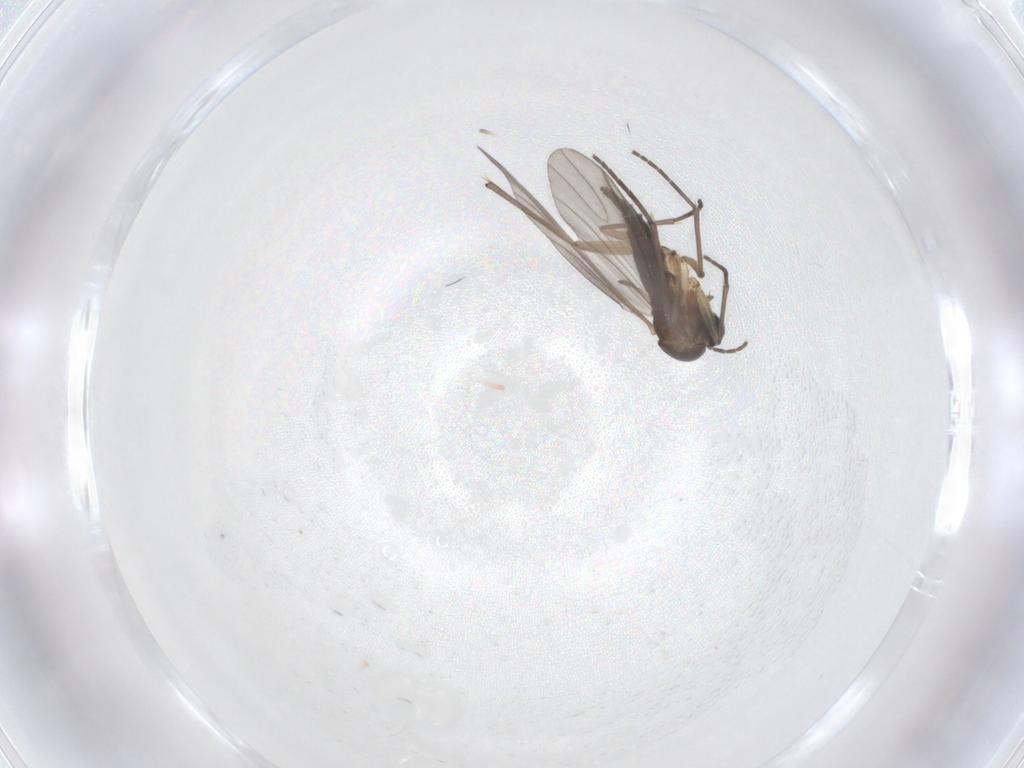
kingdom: Animalia
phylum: Arthropoda
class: Insecta
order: Diptera
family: Sciaridae
